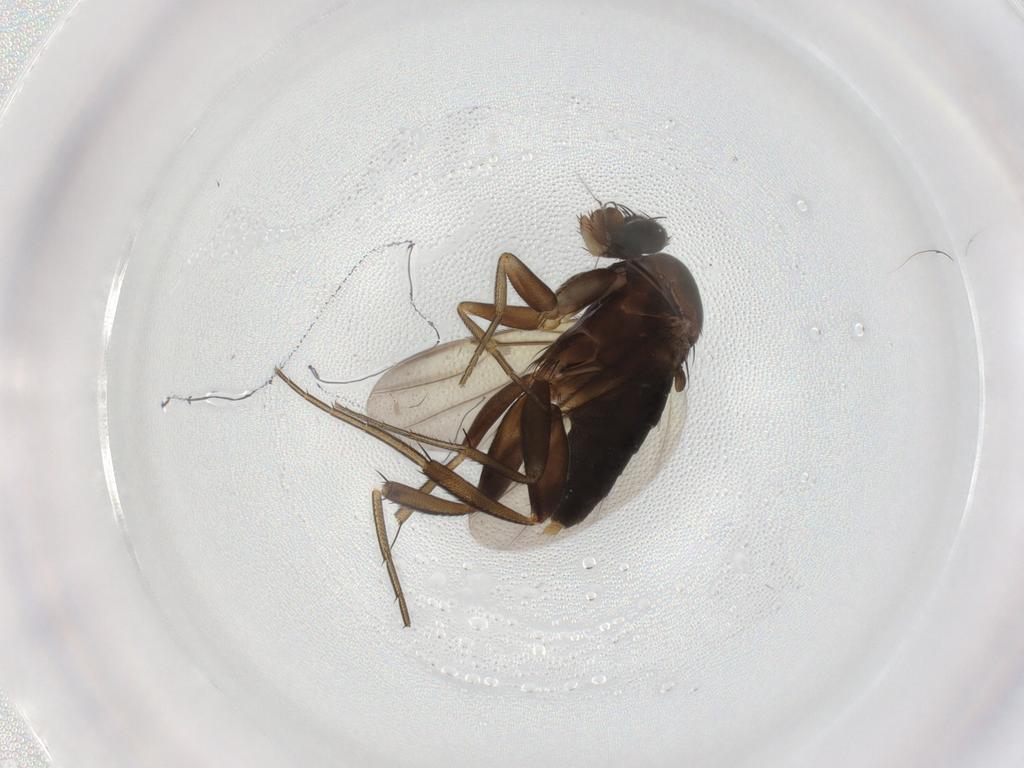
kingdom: Animalia
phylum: Arthropoda
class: Insecta
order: Diptera
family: Phoridae
